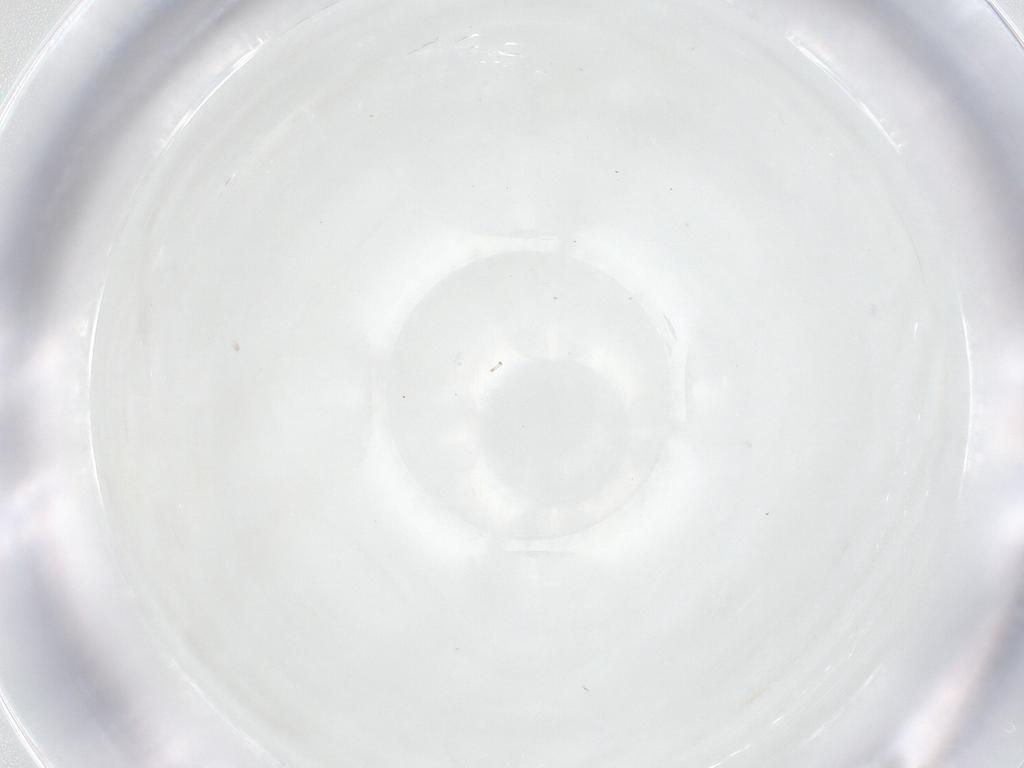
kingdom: Animalia
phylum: Arthropoda
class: Insecta
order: Blattodea
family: Ectobiidae
